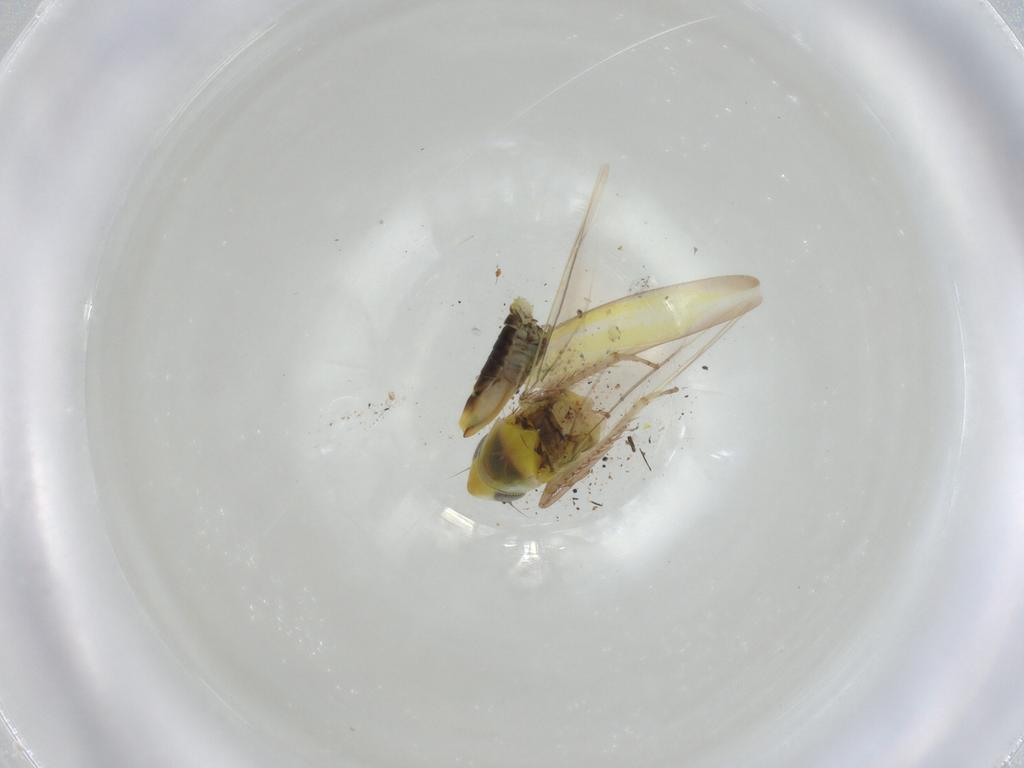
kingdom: Animalia
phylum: Arthropoda
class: Insecta
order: Hemiptera
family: Cicadellidae
